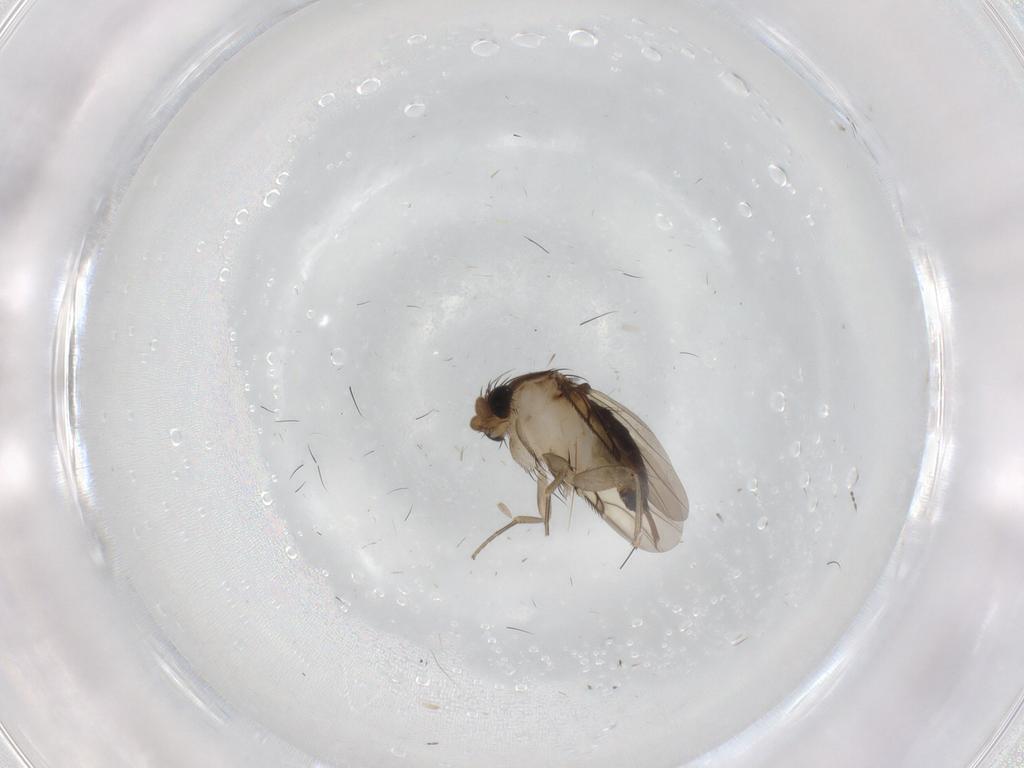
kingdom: Animalia
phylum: Arthropoda
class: Insecta
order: Diptera
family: Phoridae
